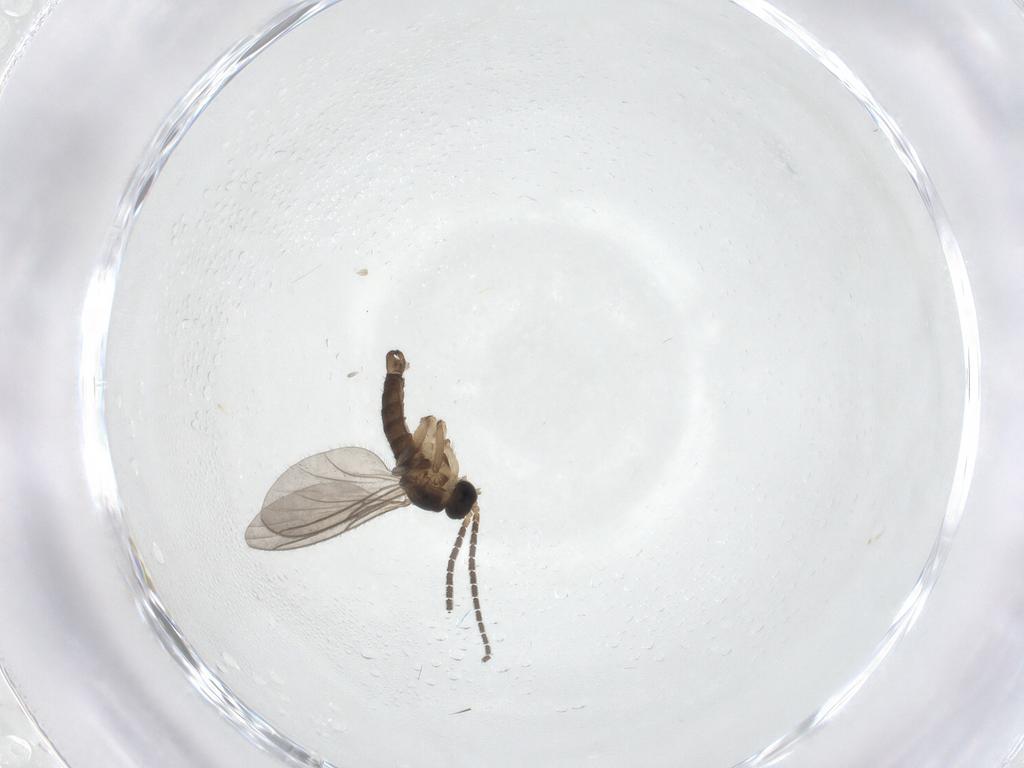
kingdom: Animalia
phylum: Arthropoda
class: Insecta
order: Diptera
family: Sciaridae
